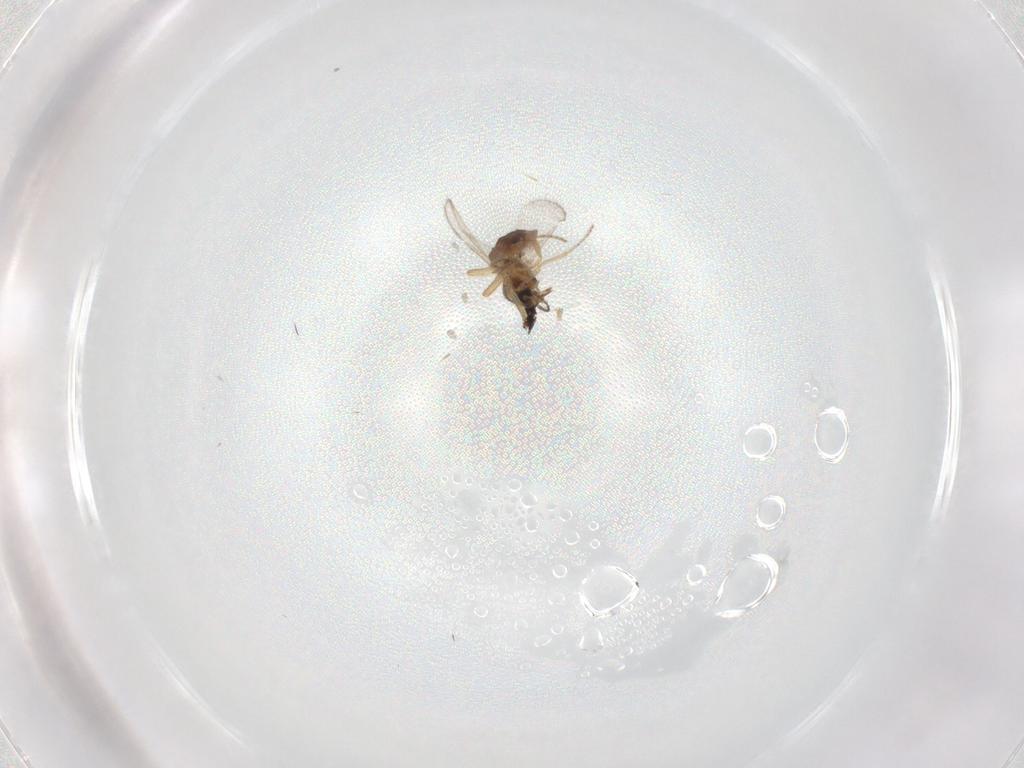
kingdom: Animalia
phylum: Arthropoda
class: Insecta
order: Diptera
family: Ceratopogonidae
